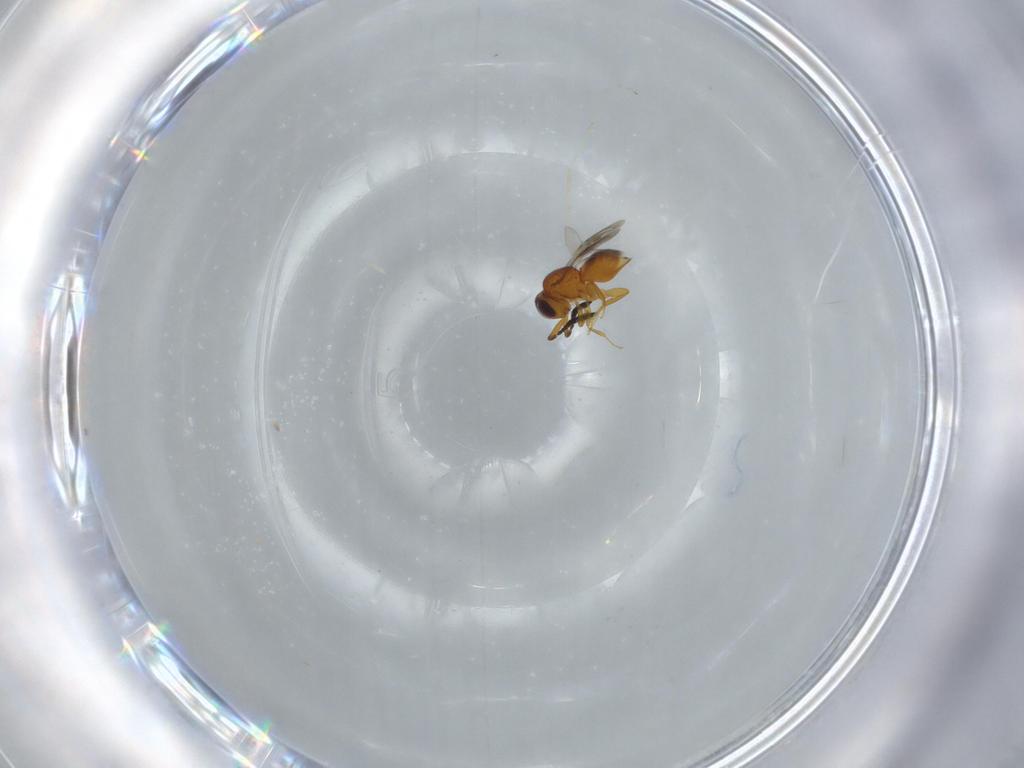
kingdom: Animalia
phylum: Arthropoda
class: Insecta
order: Hymenoptera
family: Ceraphronidae
